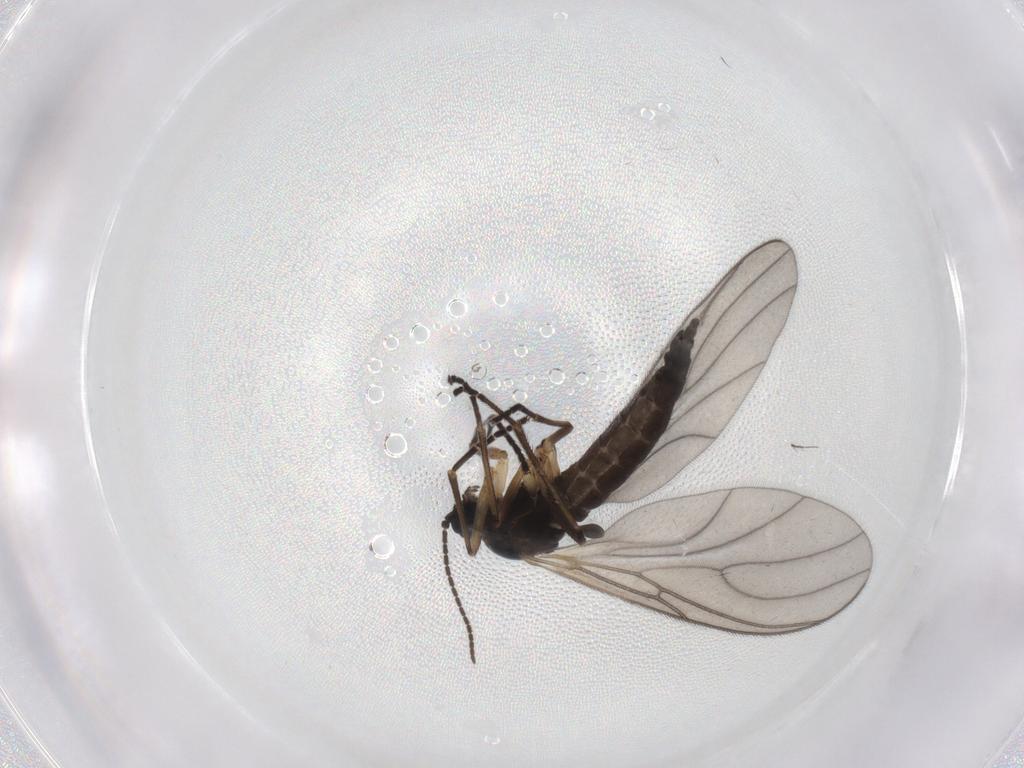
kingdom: Animalia
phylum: Arthropoda
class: Insecta
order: Diptera
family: Sciaridae
